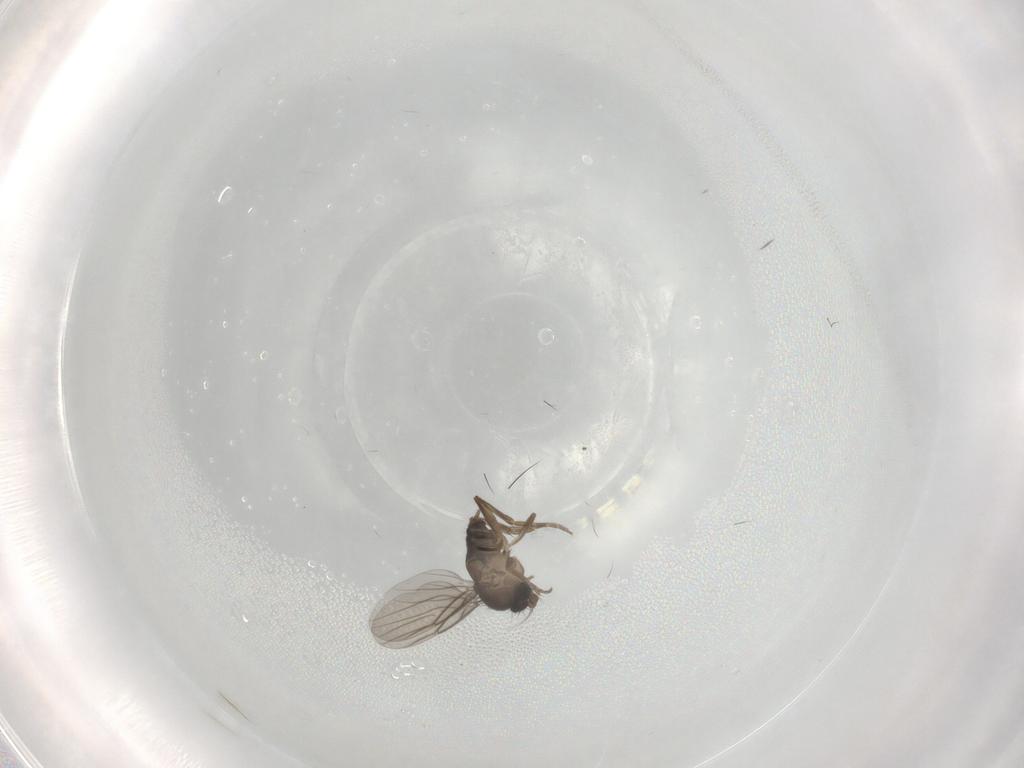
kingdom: Animalia
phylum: Arthropoda
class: Insecta
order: Diptera
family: Phoridae
